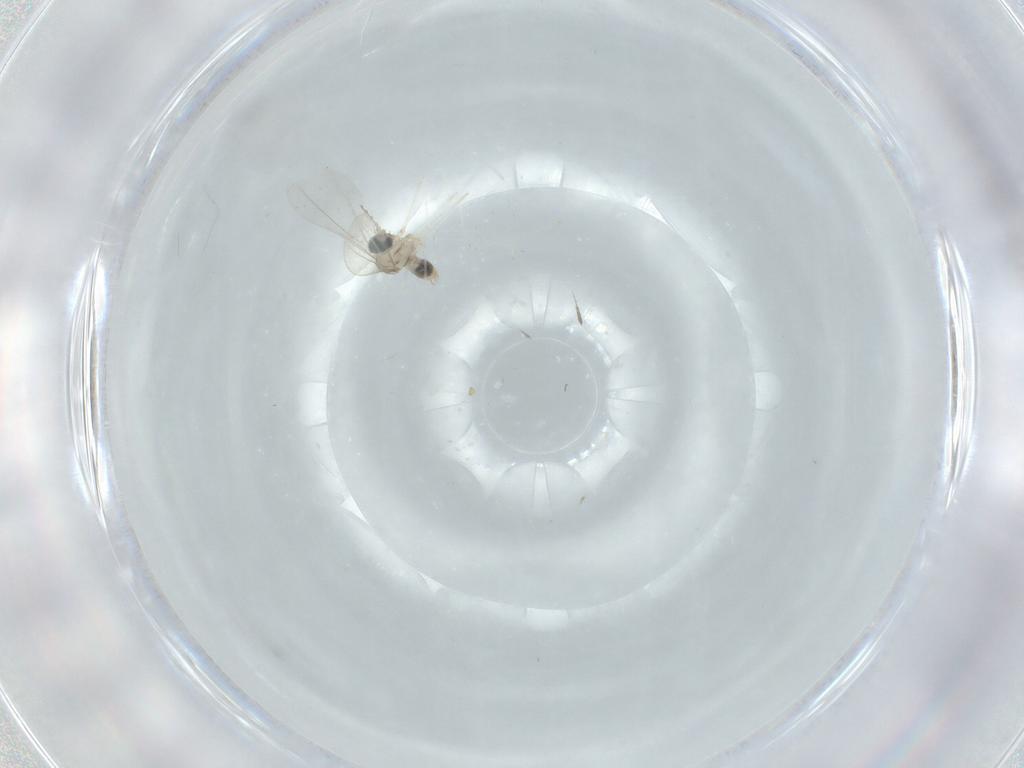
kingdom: Animalia
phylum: Arthropoda
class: Insecta
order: Diptera
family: Cecidomyiidae
